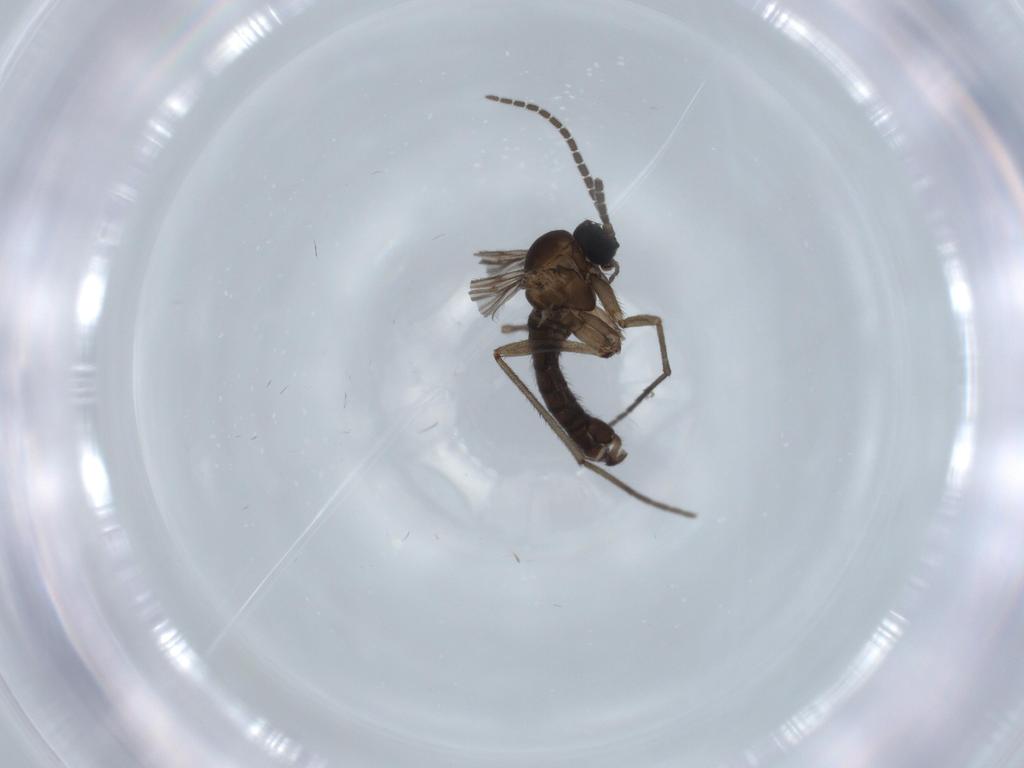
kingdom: Animalia
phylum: Arthropoda
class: Insecta
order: Diptera
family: Sciaridae
